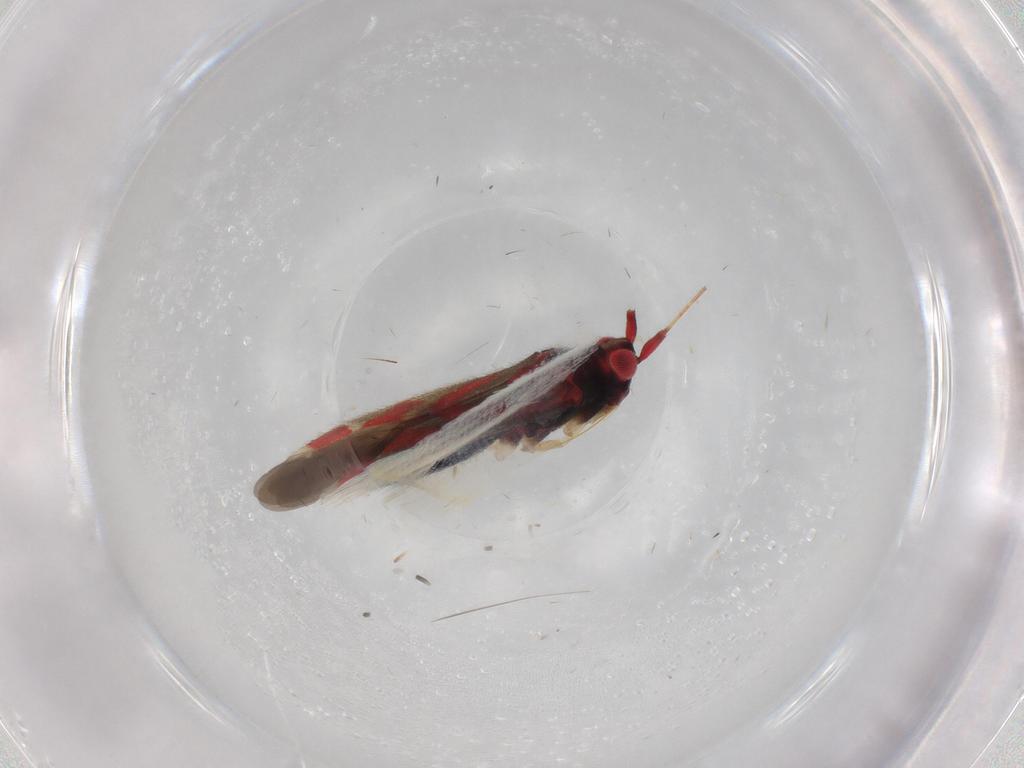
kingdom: Animalia
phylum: Arthropoda
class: Insecta
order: Hemiptera
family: Miridae
